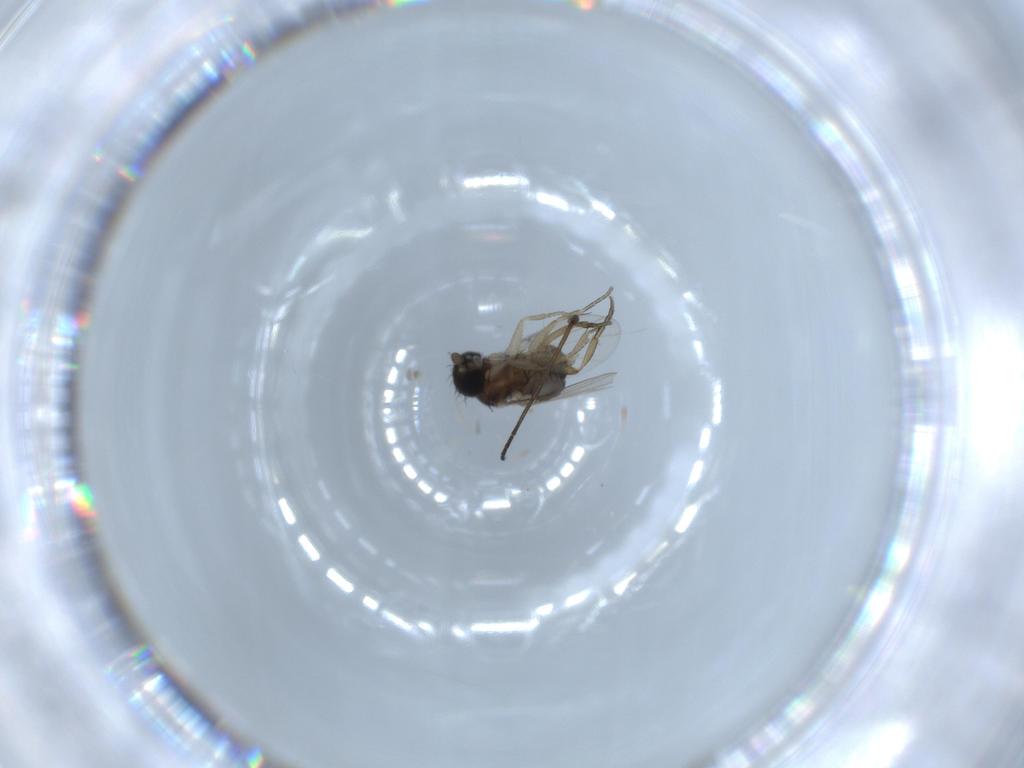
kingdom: Animalia
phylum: Arthropoda
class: Insecta
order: Diptera
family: Phoridae
